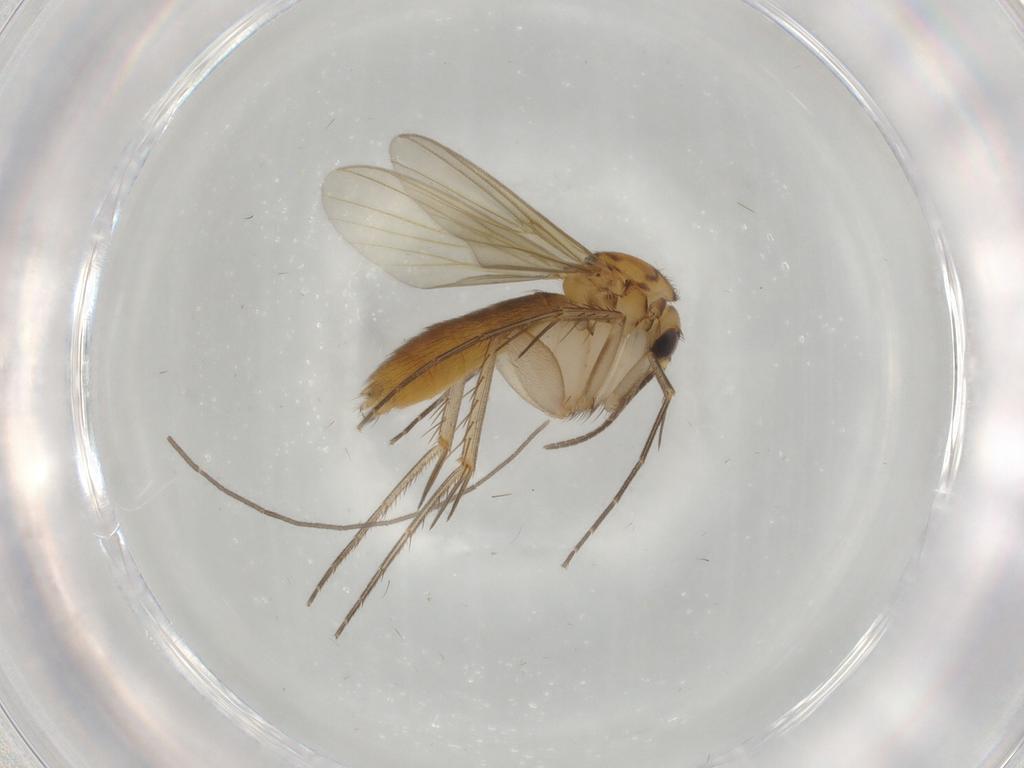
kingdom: Animalia
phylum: Arthropoda
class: Insecta
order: Diptera
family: Mycetophilidae
